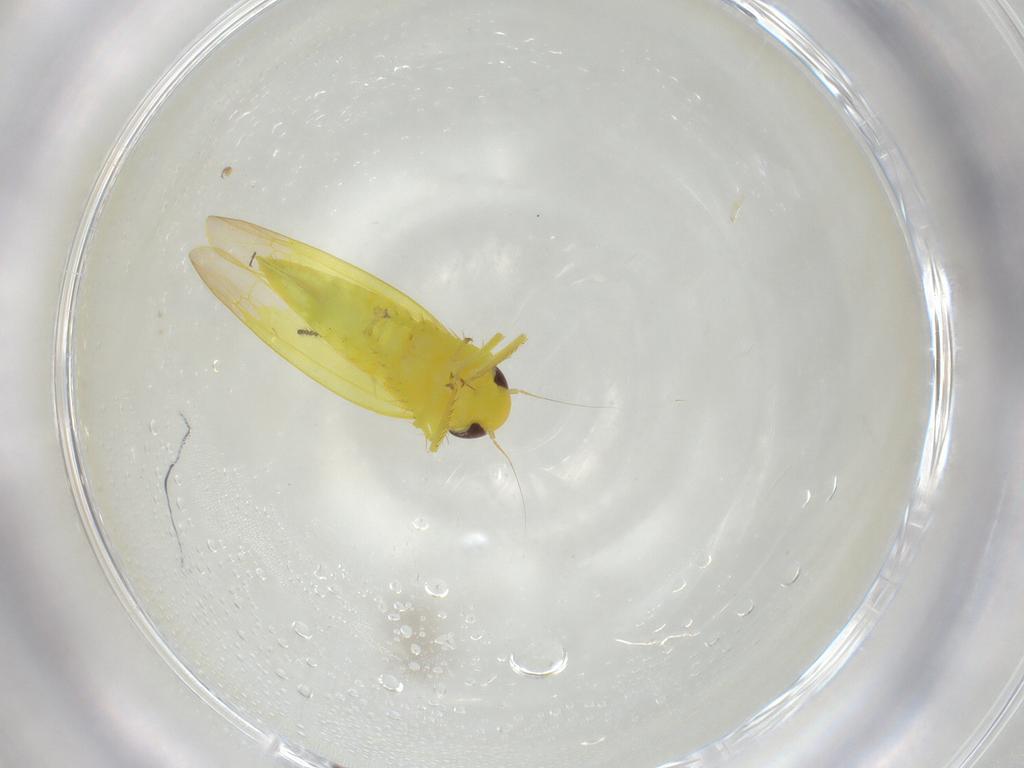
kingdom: Animalia
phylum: Arthropoda
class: Insecta
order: Hemiptera
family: Cicadellidae
